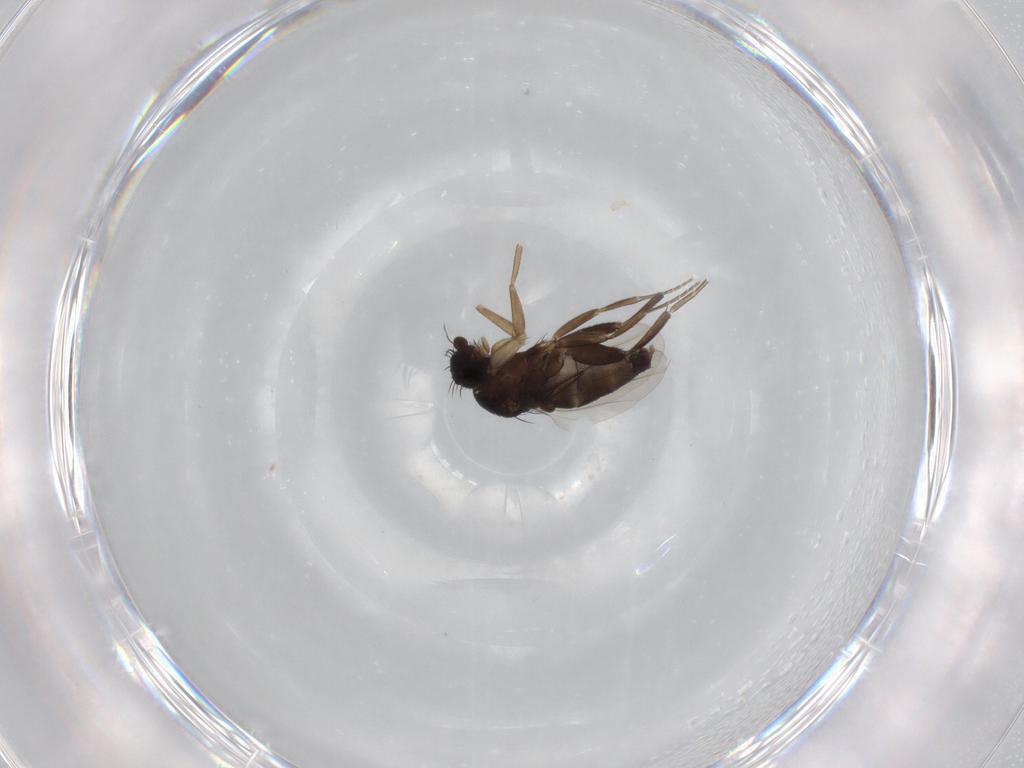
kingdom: Animalia
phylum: Arthropoda
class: Insecta
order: Diptera
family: Phoridae
